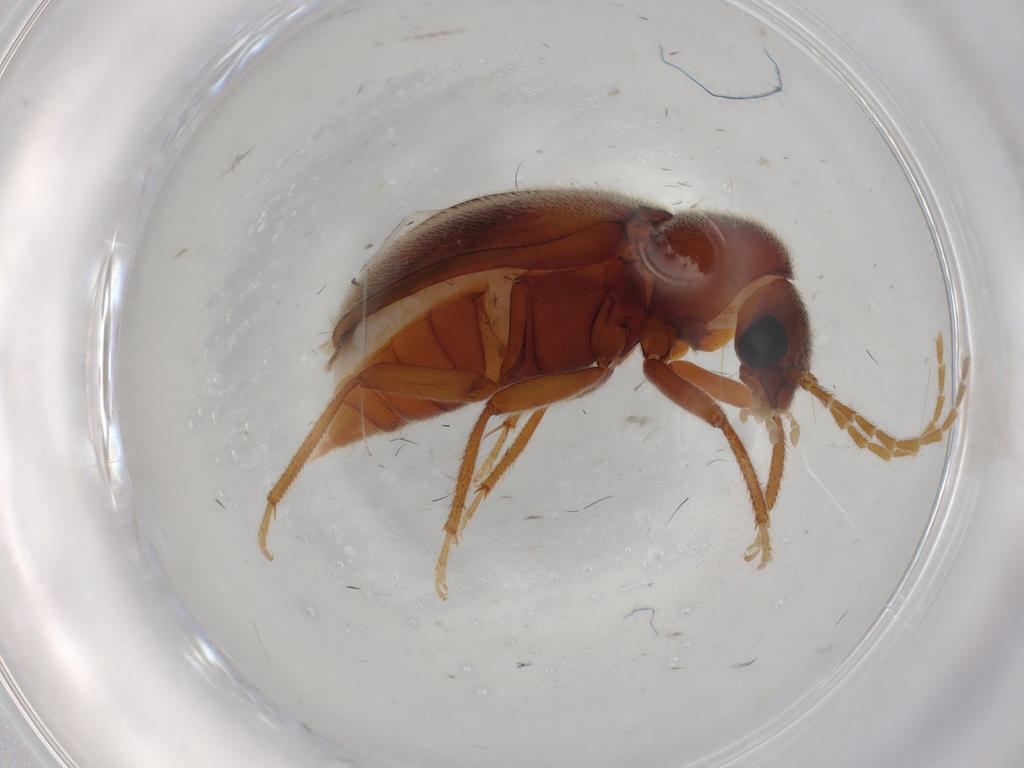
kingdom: Animalia
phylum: Arthropoda
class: Insecta
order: Coleoptera
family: Ptilodactylidae
